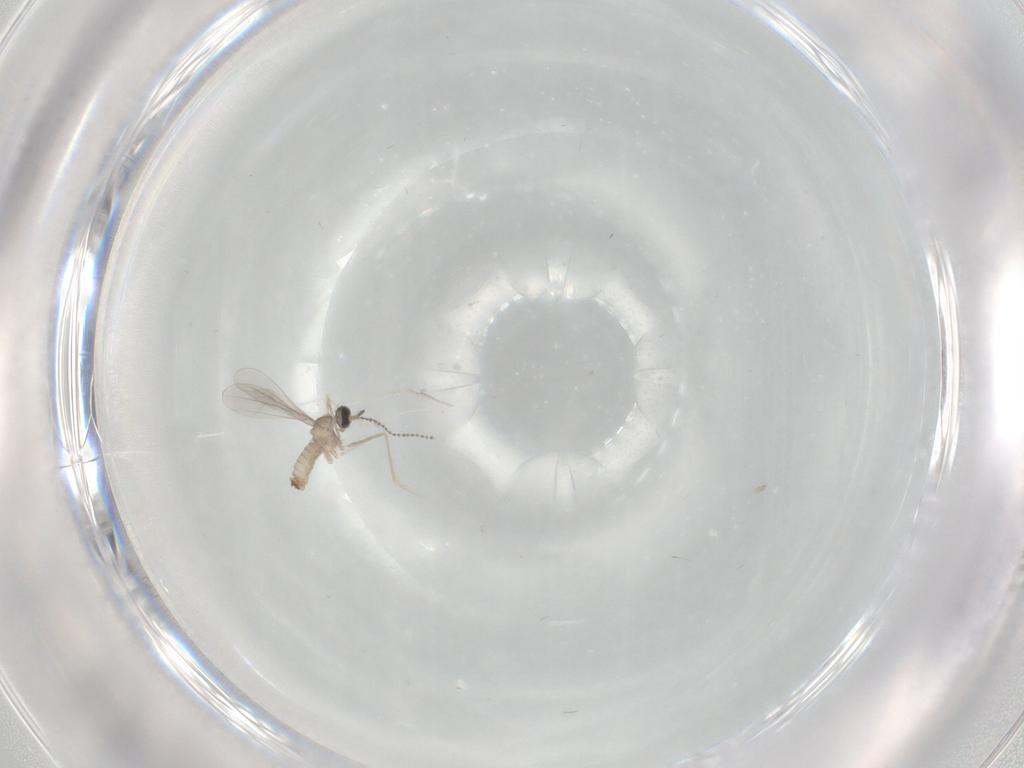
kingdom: Animalia
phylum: Arthropoda
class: Insecta
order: Diptera
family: Cecidomyiidae
